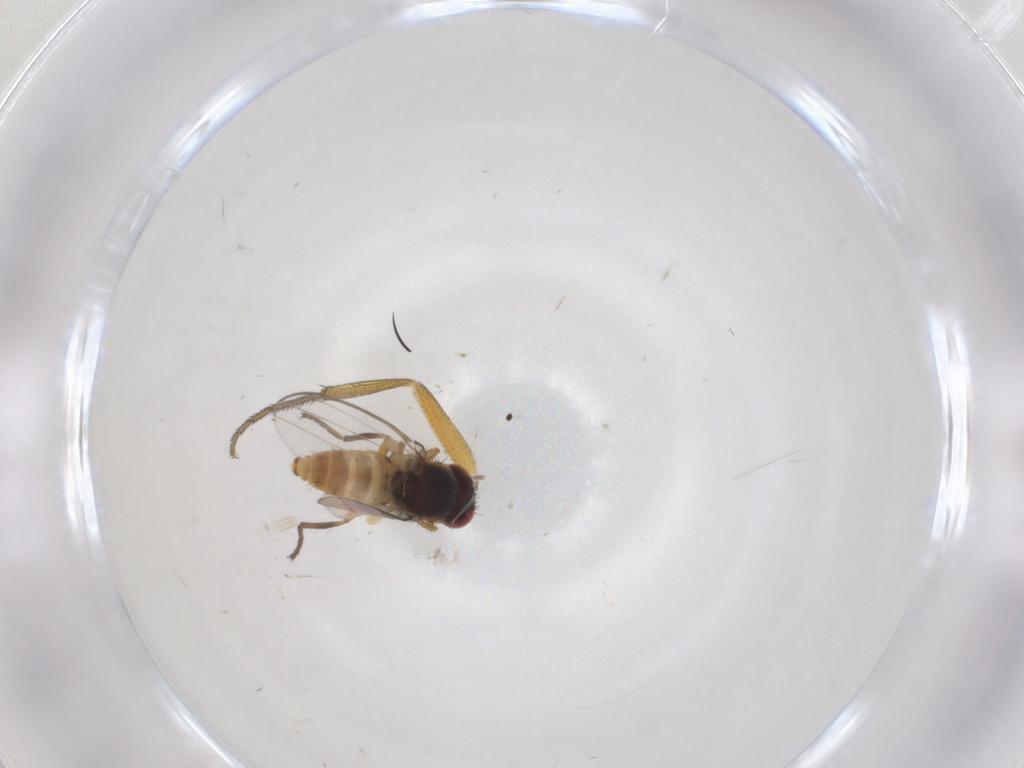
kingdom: Animalia
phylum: Arthropoda
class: Insecta
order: Diptera
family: Chloropidae
